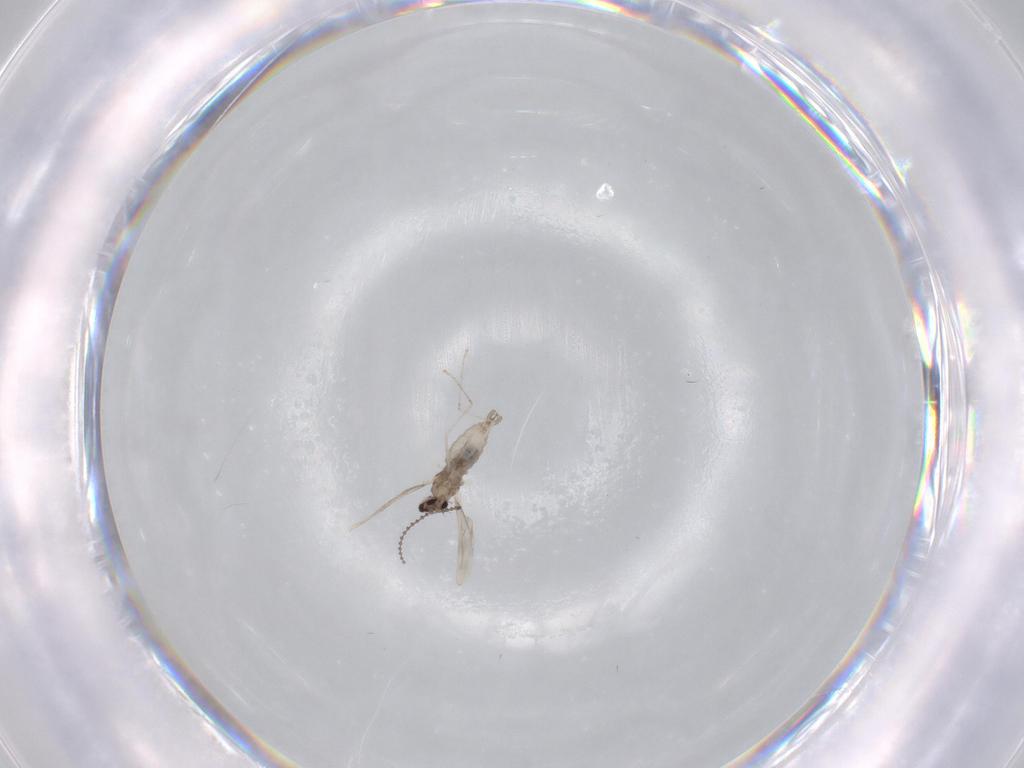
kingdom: Animalia
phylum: Arthropoda
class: Insecta
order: Diptera
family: Cecidomyiidae
